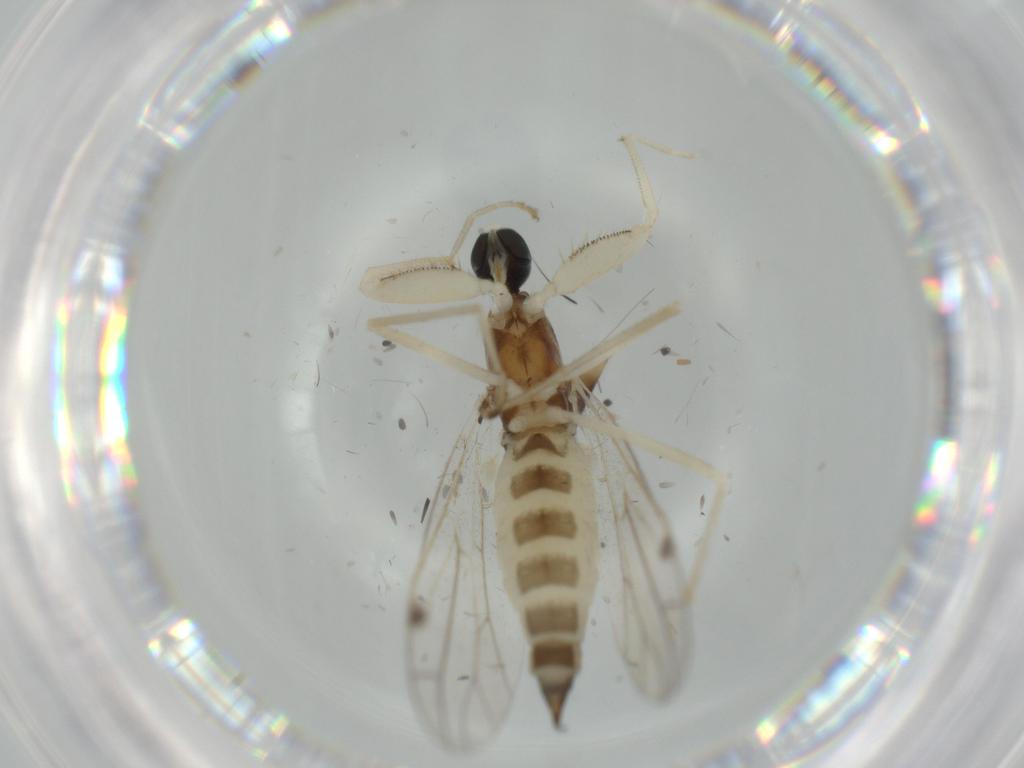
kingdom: Animalia
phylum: Arthropoda
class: Insecta
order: Diptera
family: Empididae
